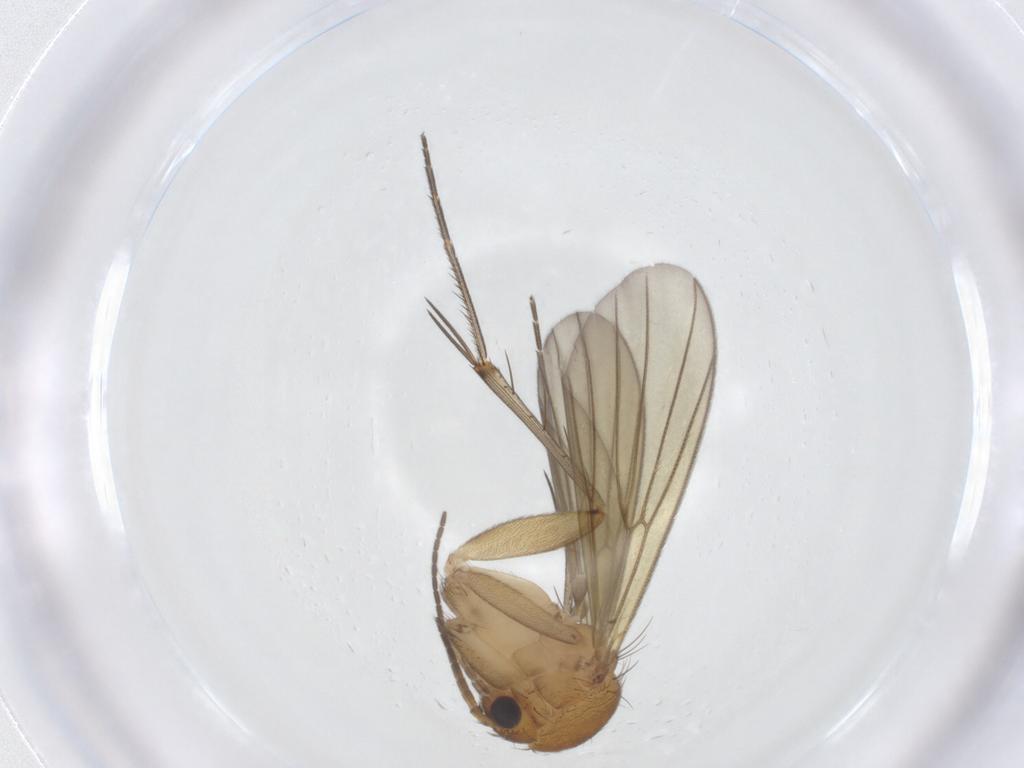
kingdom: Animalia
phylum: Arthropoda
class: Insecta
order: Diptera
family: Mycetophilidae
